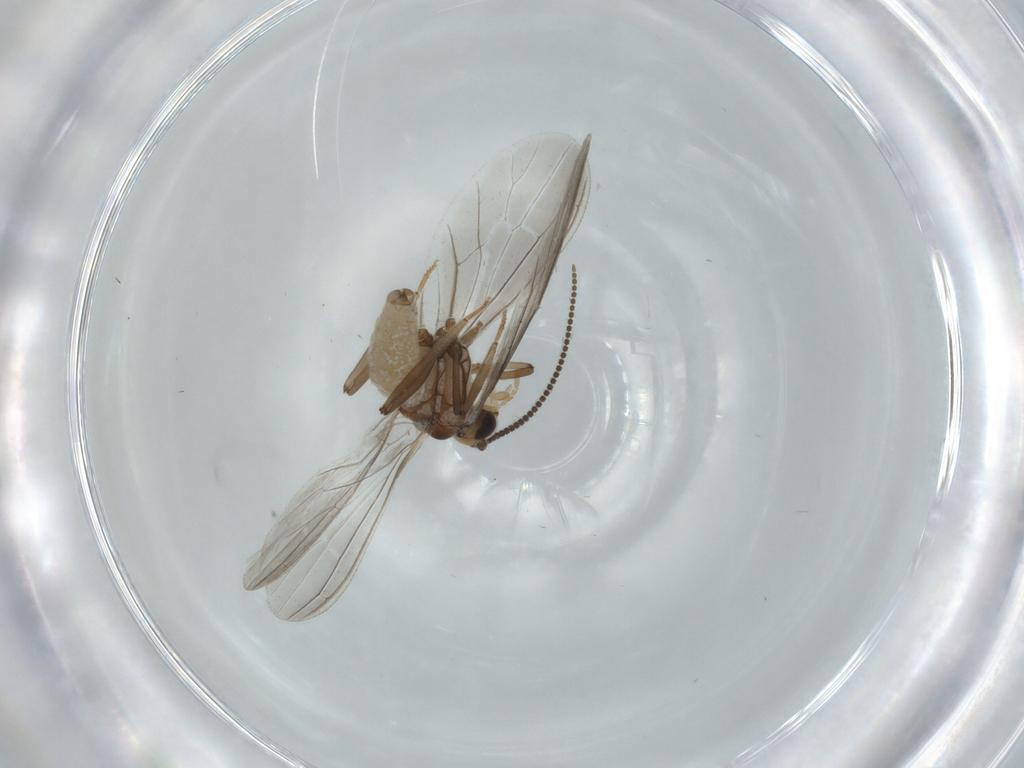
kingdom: Animalia
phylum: Arthropoda
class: Insecta
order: Neuroptera
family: Coniopterygidae
